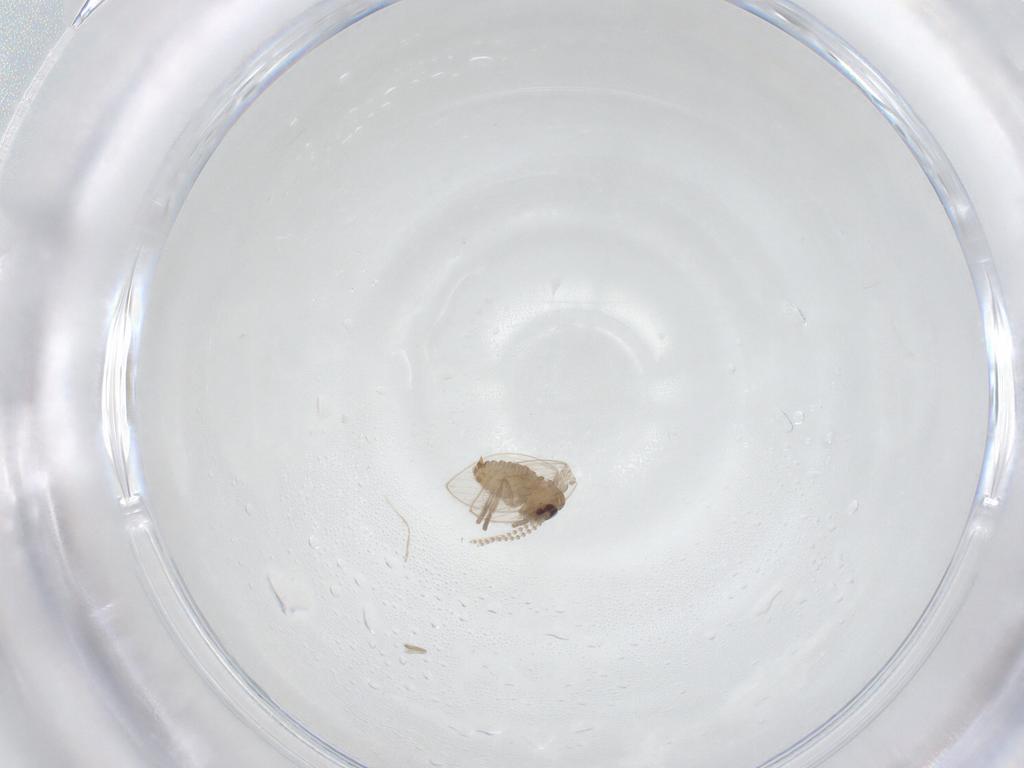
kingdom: Animalia
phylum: Arthropoda
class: Insecta
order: Diptera
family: Psychodidae
